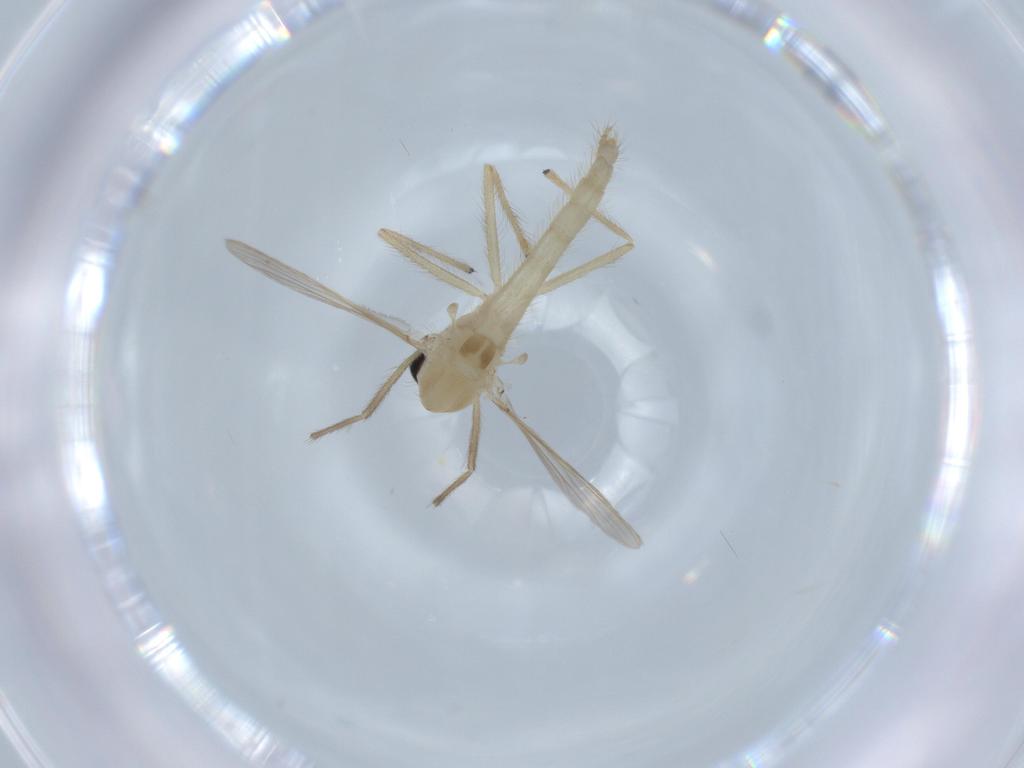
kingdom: Animalia
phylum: Arthropoda
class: Insecta
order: Diptera
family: Chironomidae
